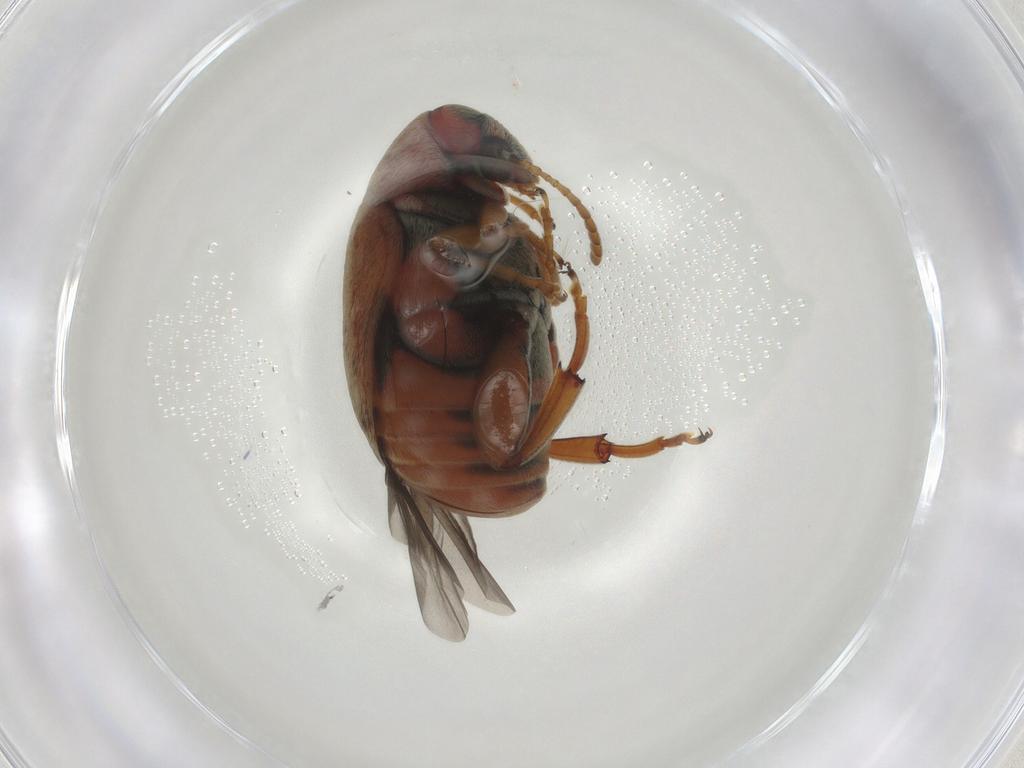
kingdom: Animalia
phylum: Arthropoda
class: Insecta
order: Coleoptera
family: Chrysomelidae
